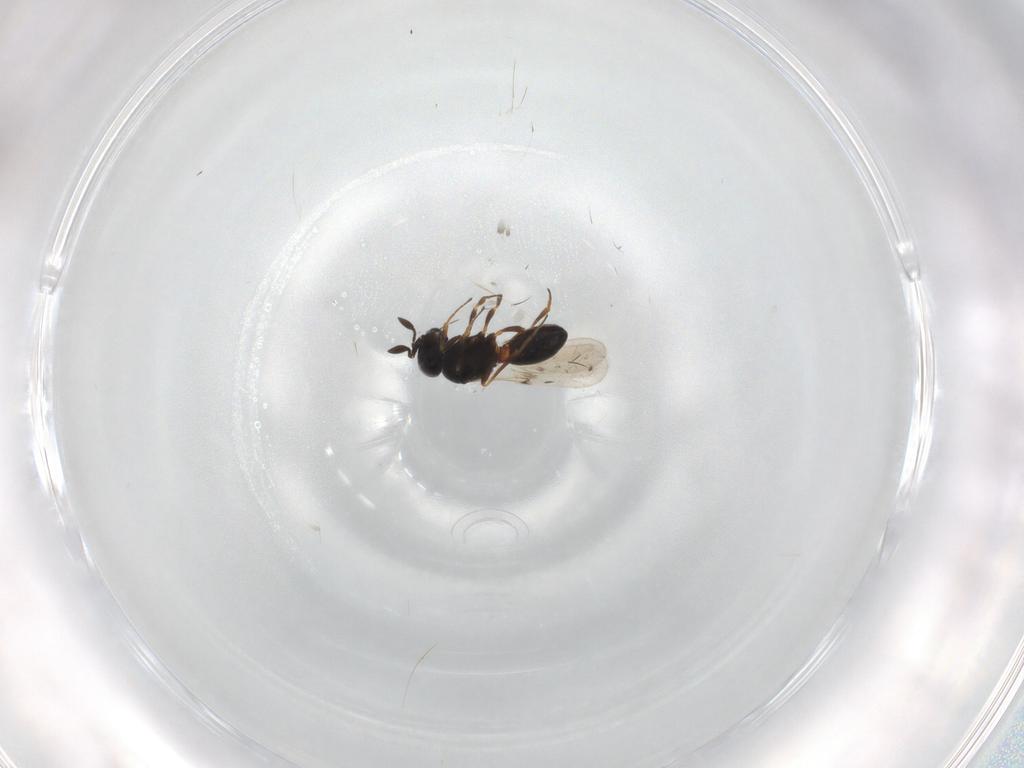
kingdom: Animalia
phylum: Arthropoda
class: Insecta
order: Hymenoptera
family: Scelionidae
